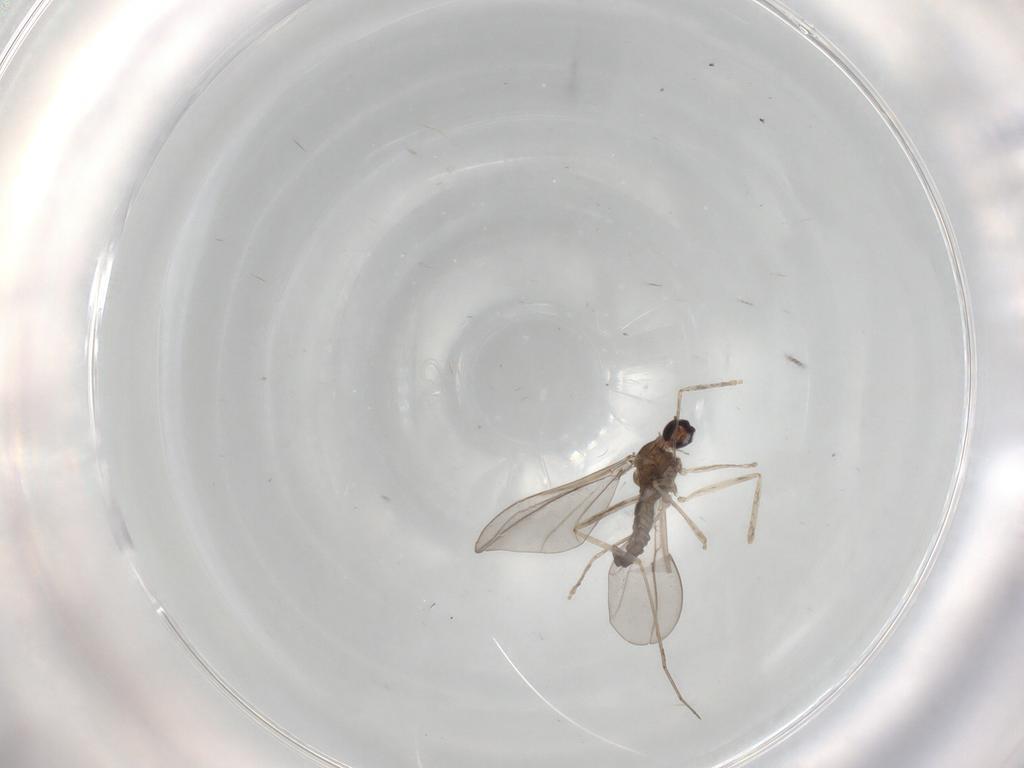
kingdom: Animalia
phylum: Arthropoda
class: Insecta
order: Diptera
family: Cecidomyiidae
